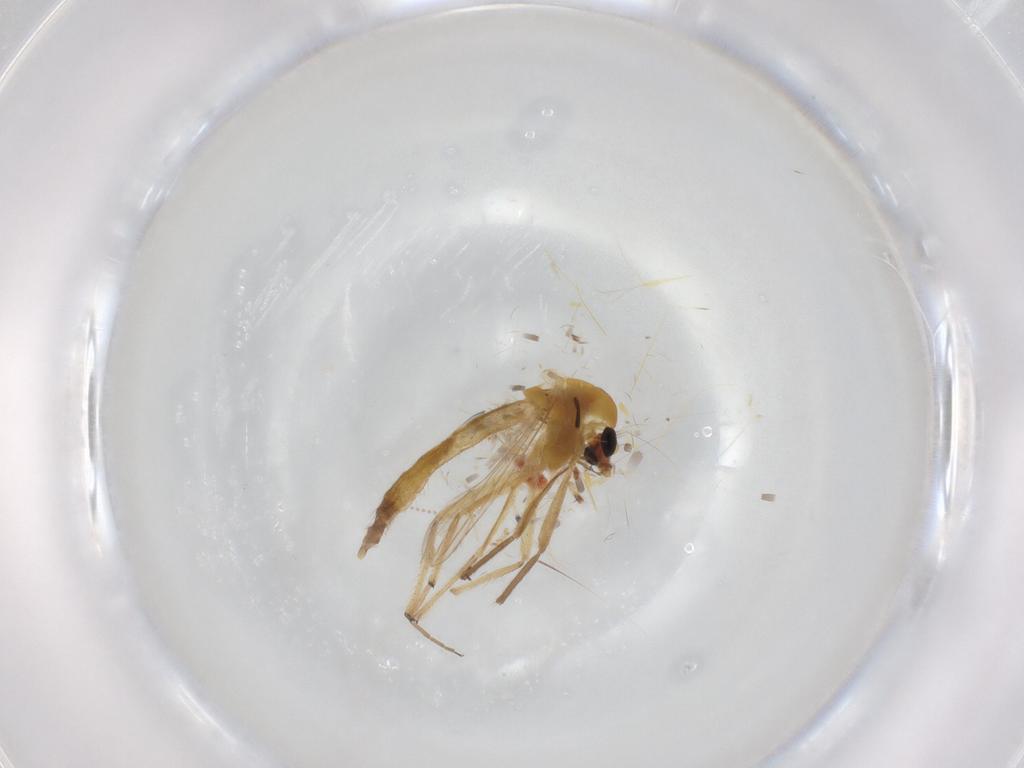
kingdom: Animalia
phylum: Arthropoda
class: Insecta
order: Diptera
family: Chironomidae
